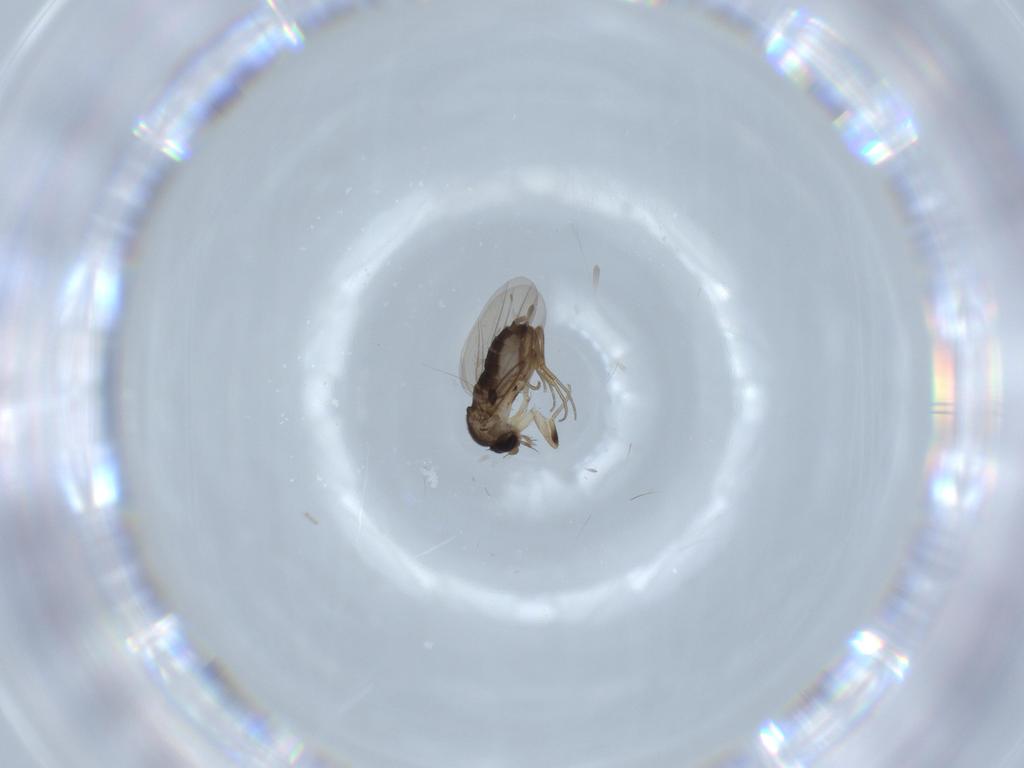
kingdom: Animalia
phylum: Arthropoda
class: Insecta
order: Diptera
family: Phoridae
